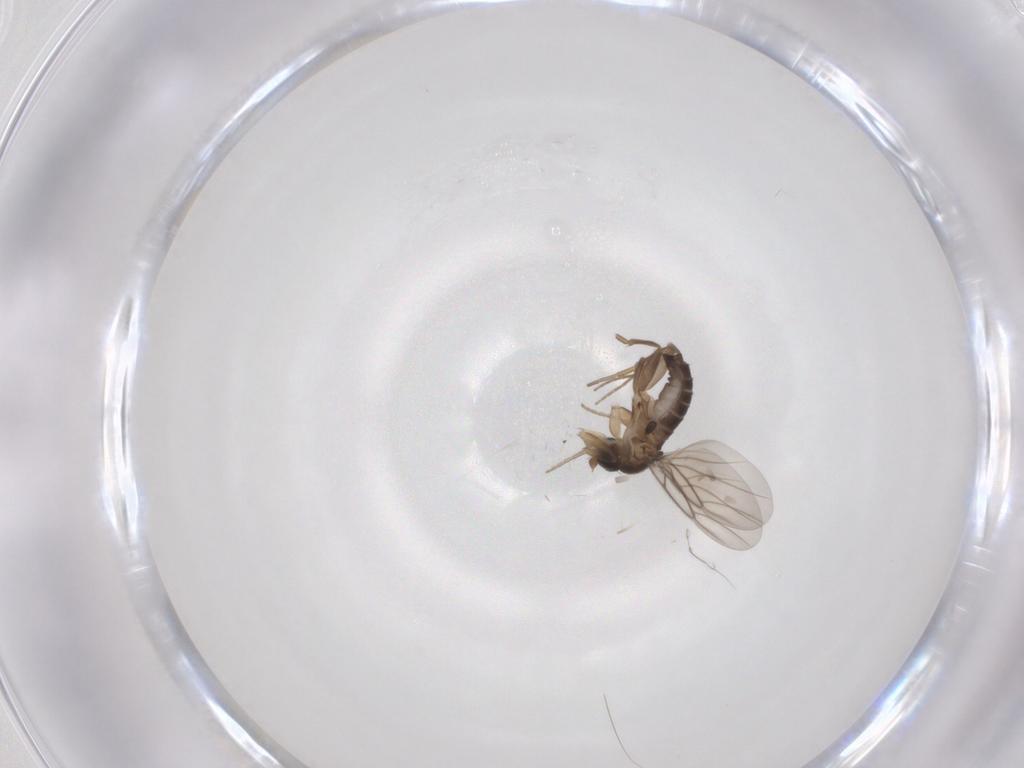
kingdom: Animalia
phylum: Arthropoda
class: Insecta
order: Diptera
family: Phoridae
